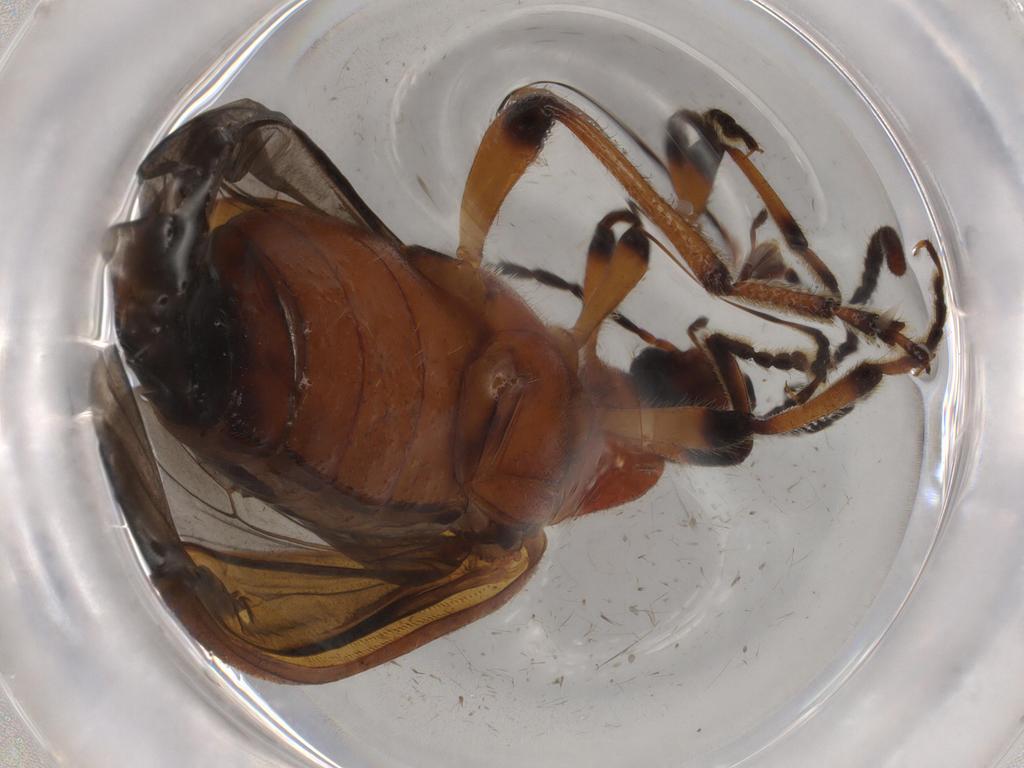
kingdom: Animalia
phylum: Arthropoda
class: Insecta
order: Coleoptera
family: Tenebrionidae
